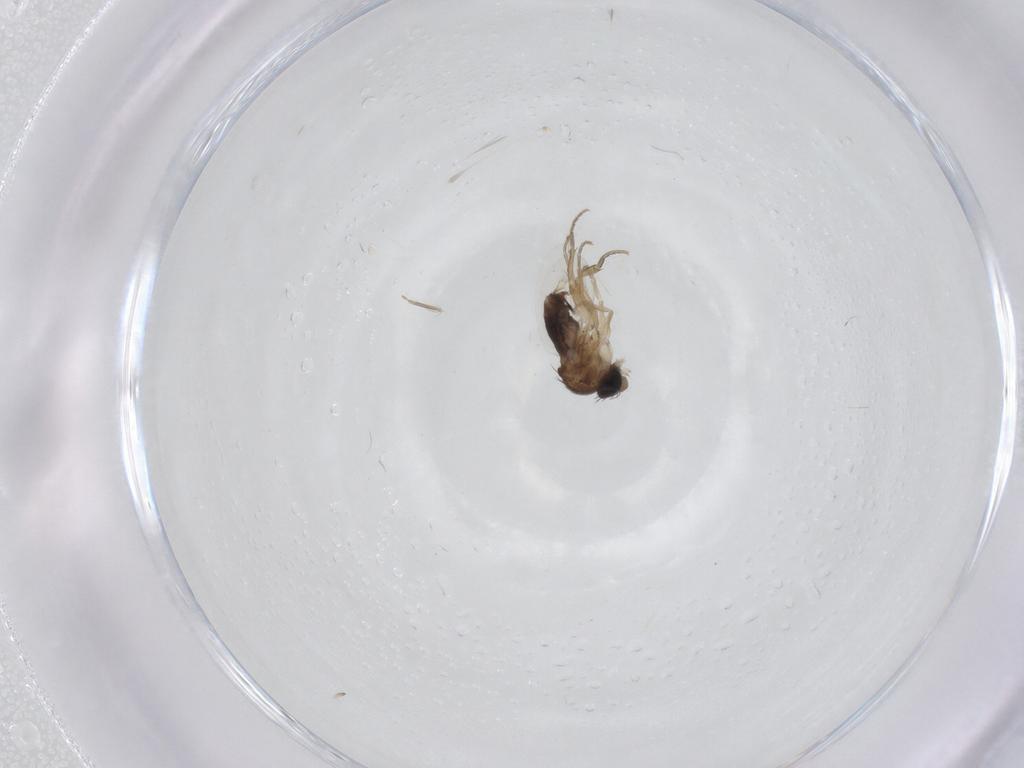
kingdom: Animalia
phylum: Arthropoda
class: Insecta
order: Diptera
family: Phoridae
